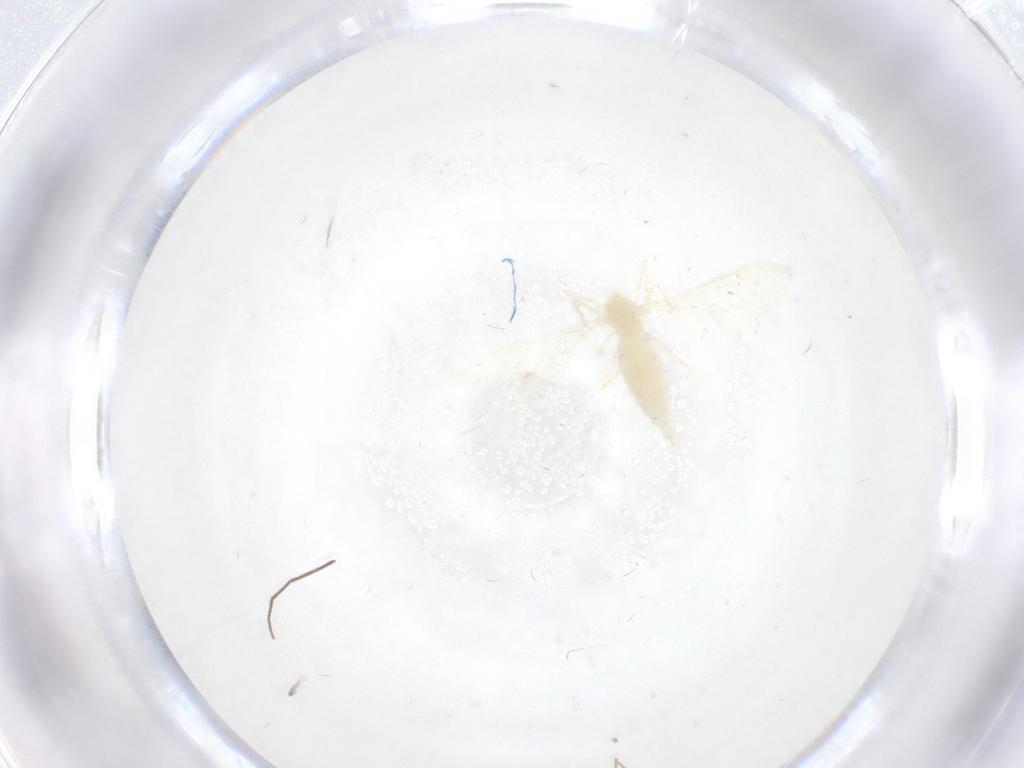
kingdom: Animalia
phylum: Arthropoda
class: Insecta
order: Diptera
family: Cecidomyiidae
